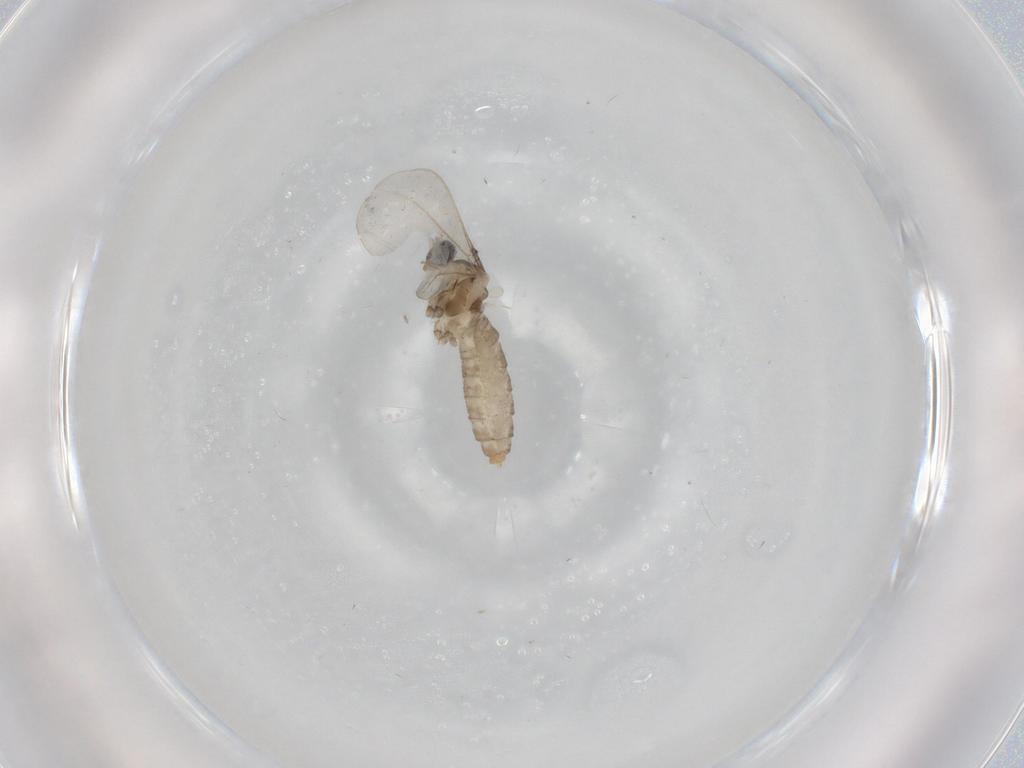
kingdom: Animalia
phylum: Arthropoda
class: Insecta
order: Diptera
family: Cecidomyiidae
